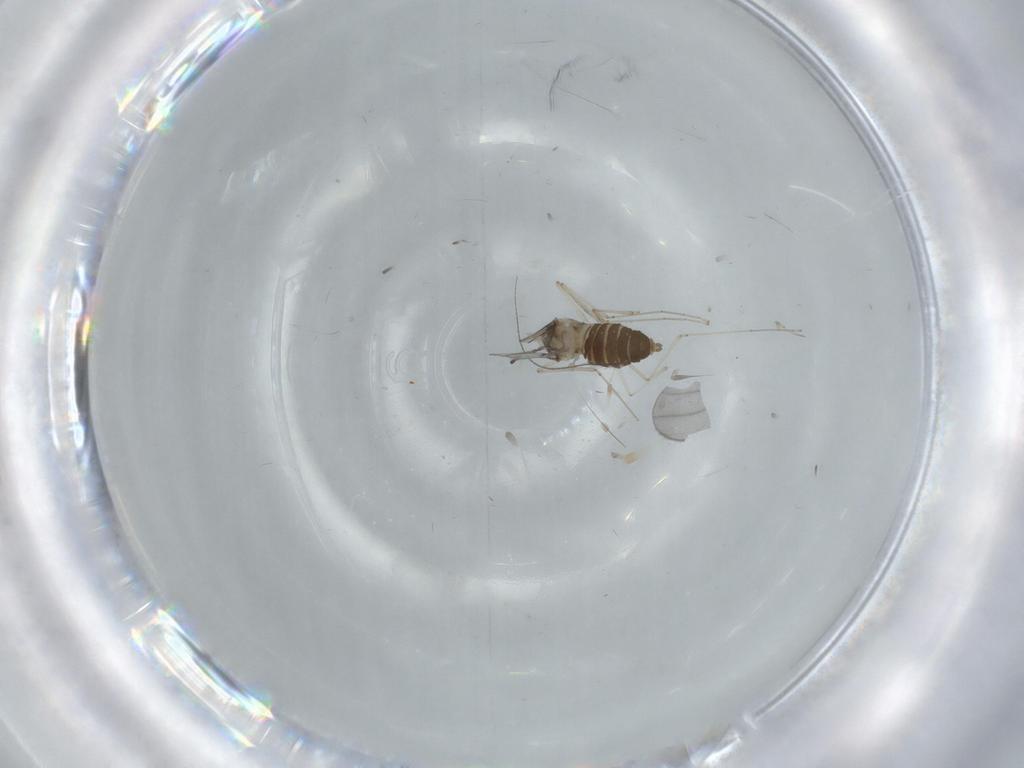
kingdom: Animalia
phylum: Arthropoda
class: Insecta
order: Diptera
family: Cecidomyiidae
